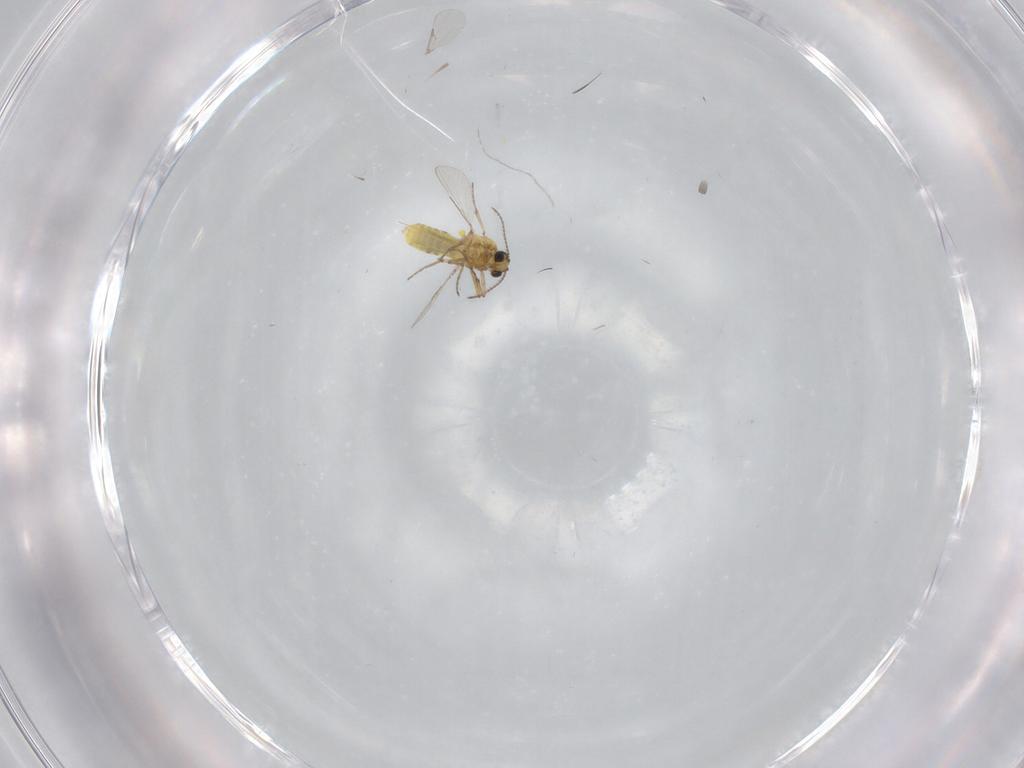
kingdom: Animalia
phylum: Arthropoda
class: Insecta
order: Diptera
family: Ceratopogonidae
